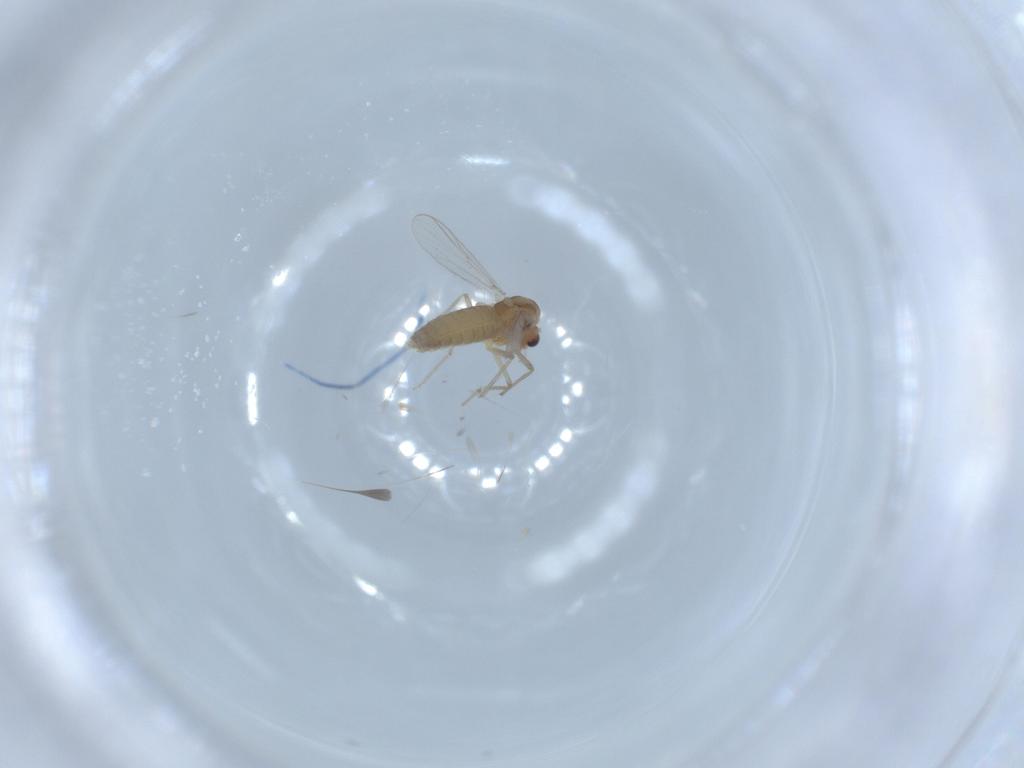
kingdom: Animalia
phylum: Arthropoda
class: Insecta
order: Diptera
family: Chironomidae
